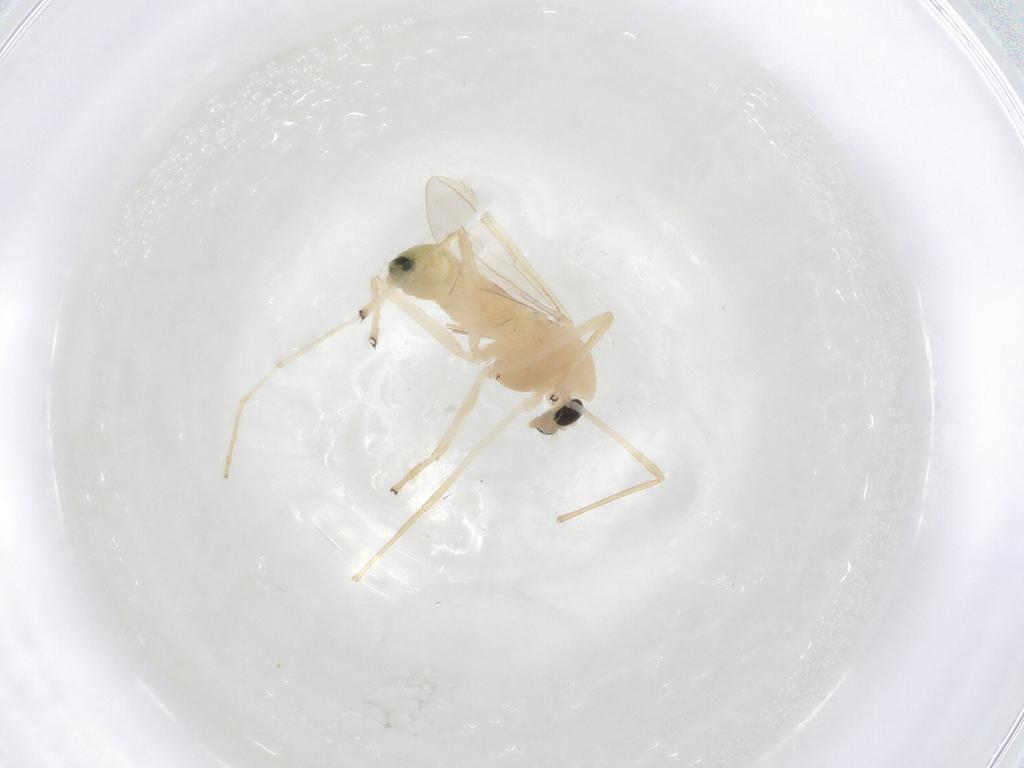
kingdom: Animalia
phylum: Arthropoda
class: Insecta
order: Diptera
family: Chironomidae
